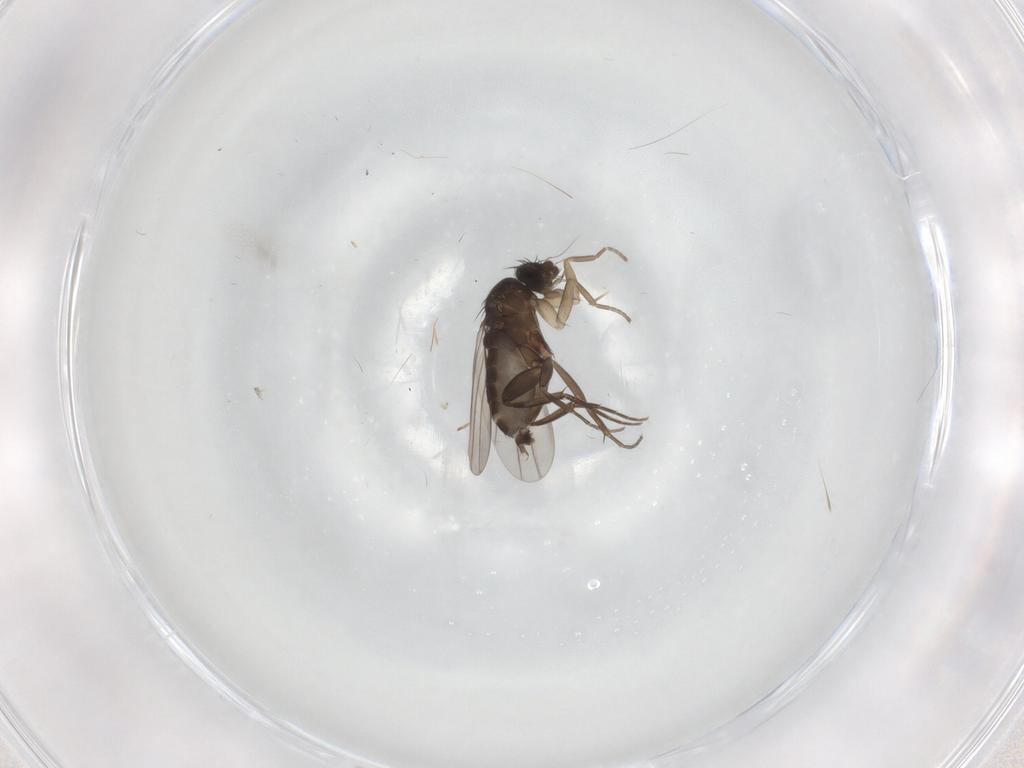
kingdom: Animalia
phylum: Arthropoda
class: Insecta
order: Diptera
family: Phoridae
